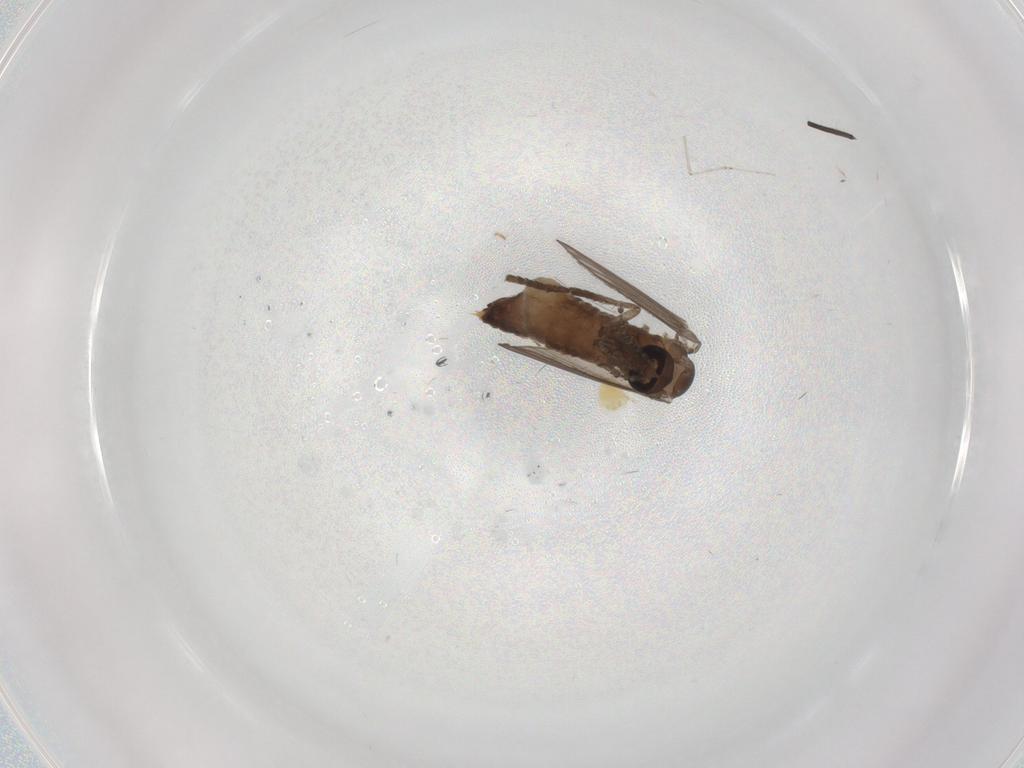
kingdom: Animalia
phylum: Arthropoda
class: Insecta
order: Diptera
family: Psychodidae
